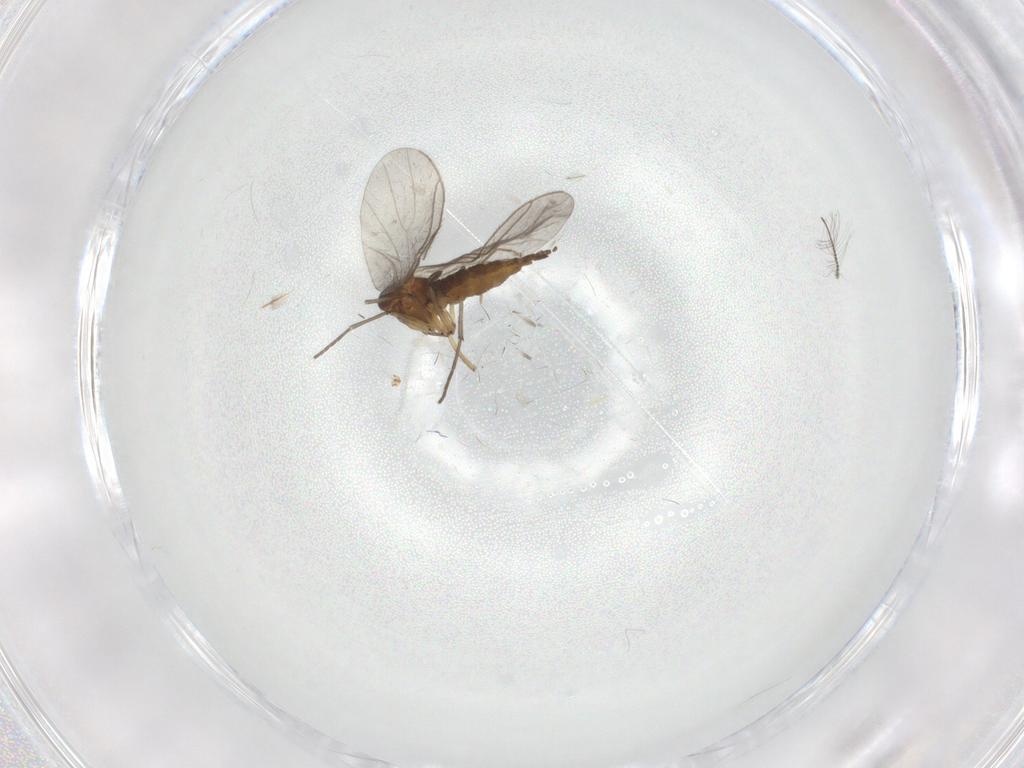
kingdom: Animalia
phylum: Arthropoda
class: Insecta
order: Diptera
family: Sciaridae
